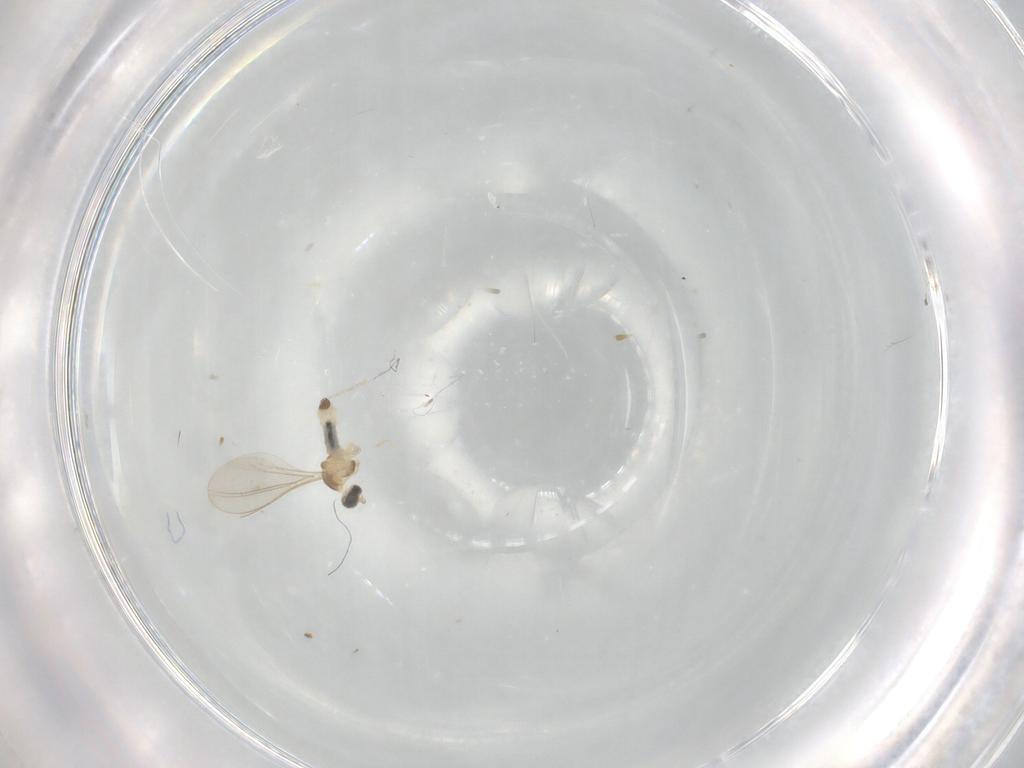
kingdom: Animalia
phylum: Arthropoda
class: Insecta
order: Diptera
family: Cecidomyiidae
